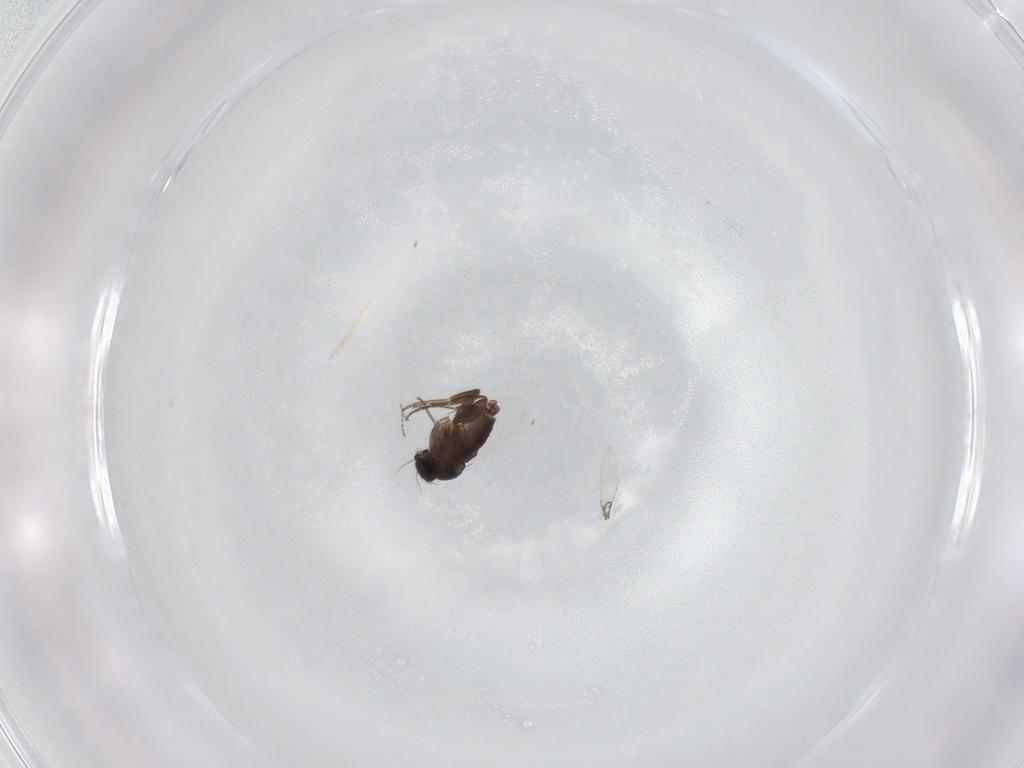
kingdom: Animalia
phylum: Arthropoda
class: Insecta
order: Diptera
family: Phoridae
